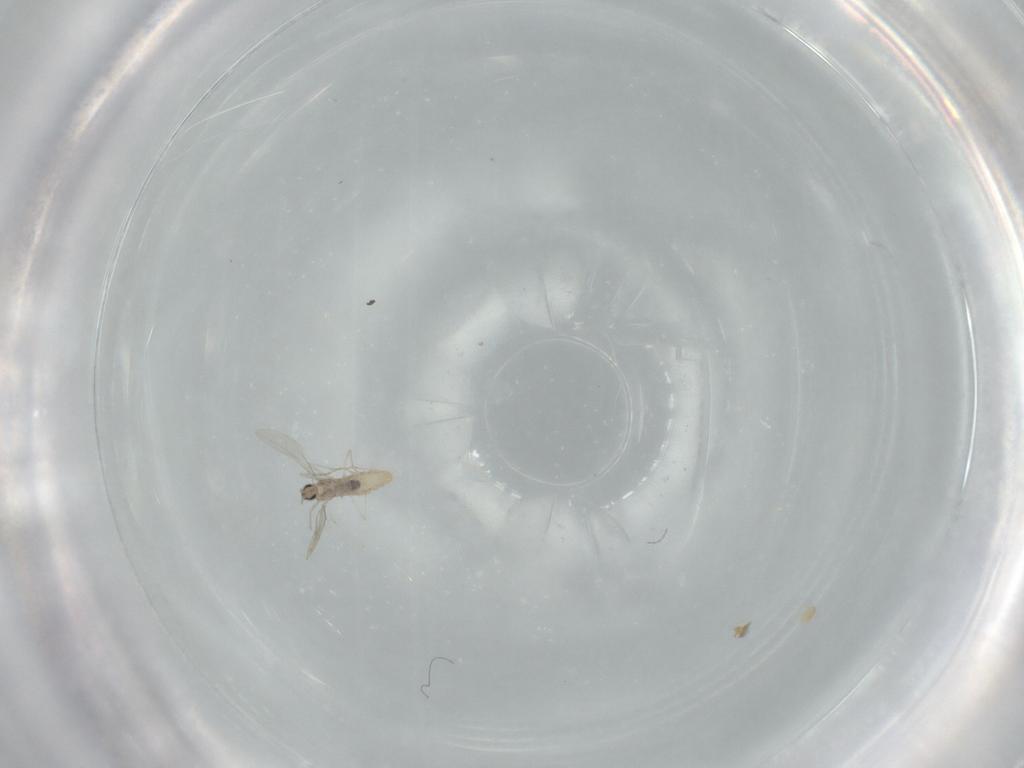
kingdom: Animalia
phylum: Arthropoda
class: Insecta
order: Diptera
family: Cecidomyiidae
